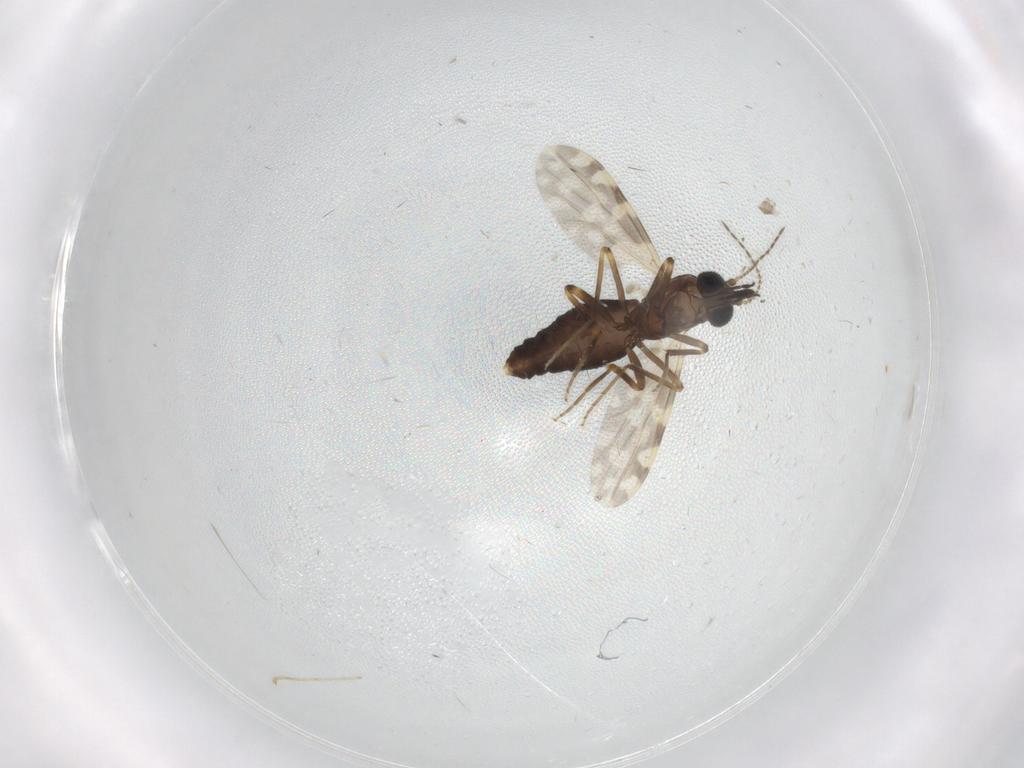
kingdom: Animalia
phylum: Arthropoda
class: Insecta
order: Diptera
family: Ceratopogonidae
